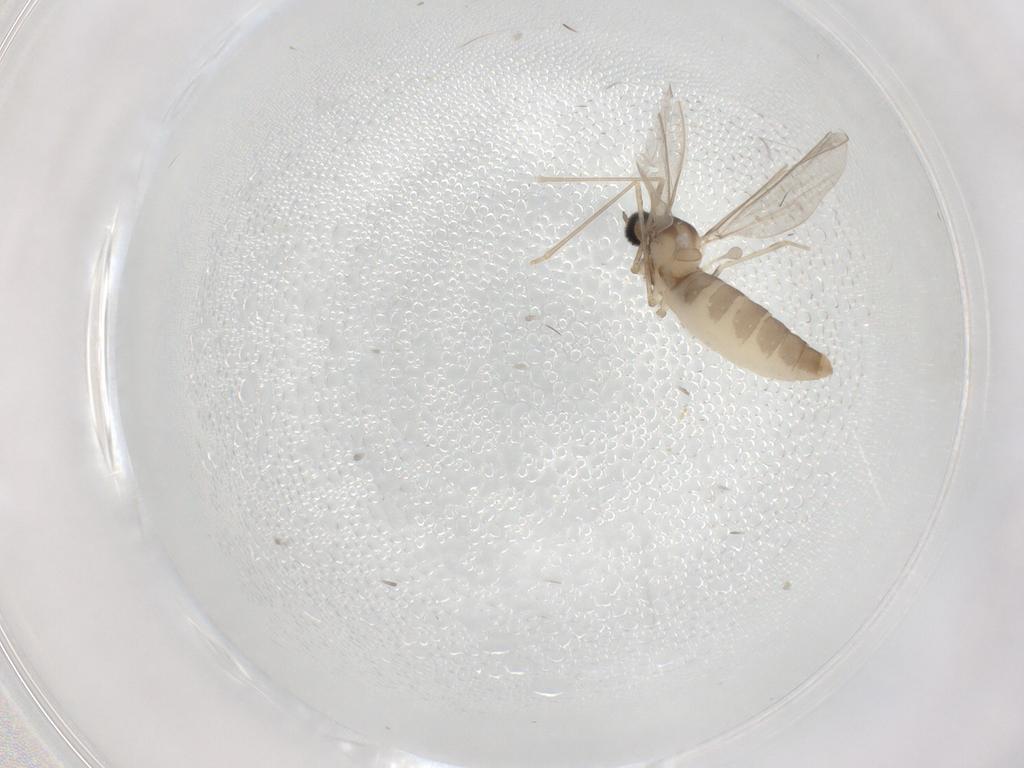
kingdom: Animalia
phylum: Arthropoda
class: Insecta
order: Diptera
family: Cecidomyiidae
